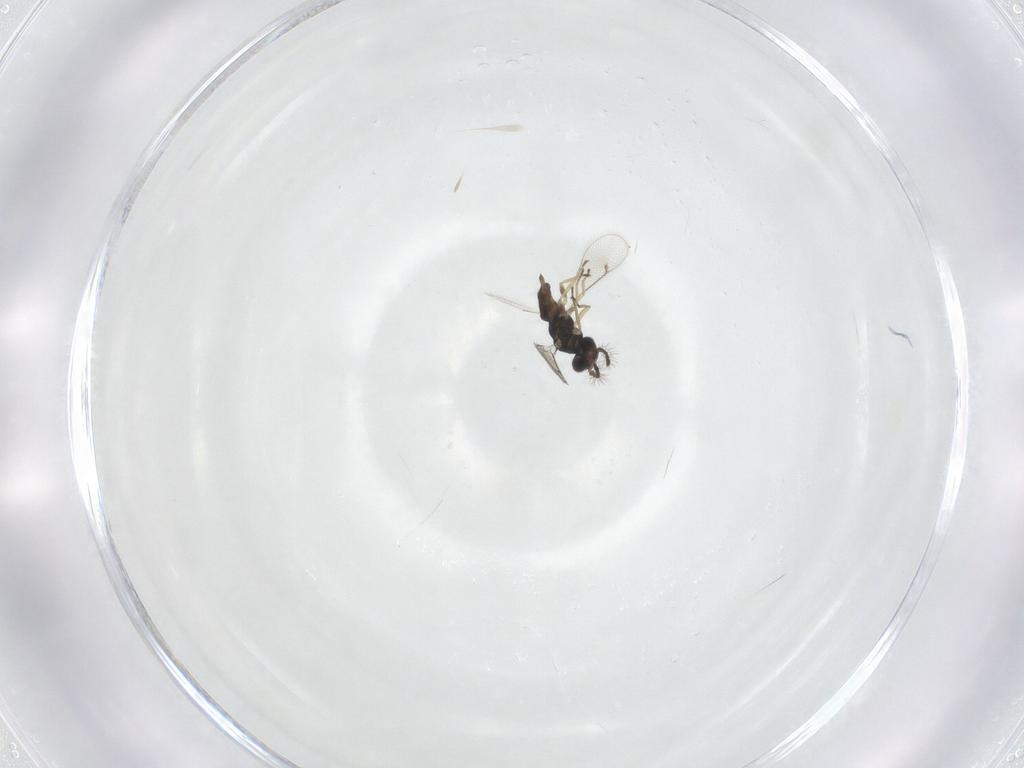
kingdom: Animalia
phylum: Arthropoda
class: Insecta
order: Hymenoptera
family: Eulophidae
